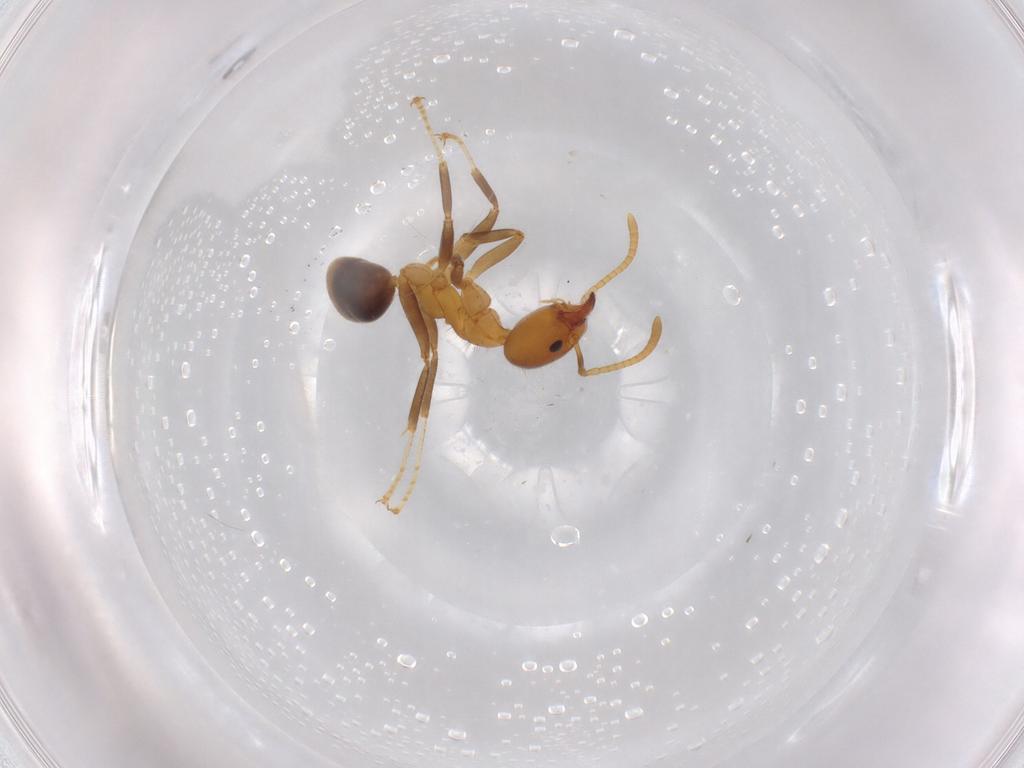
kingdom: Animalia
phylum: Arthropoda
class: Insecta
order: Hymenoptera
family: Formicidae
